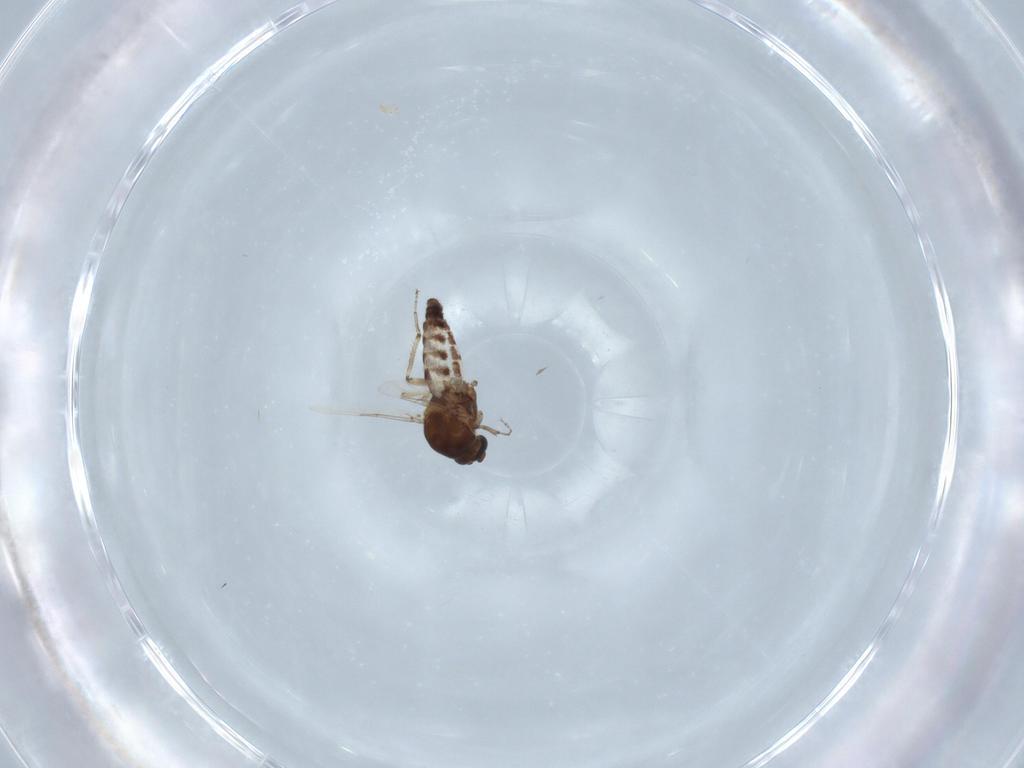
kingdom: Animalia
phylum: Arthropoda
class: Insecta
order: Diptera
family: Ceratopogonidae
